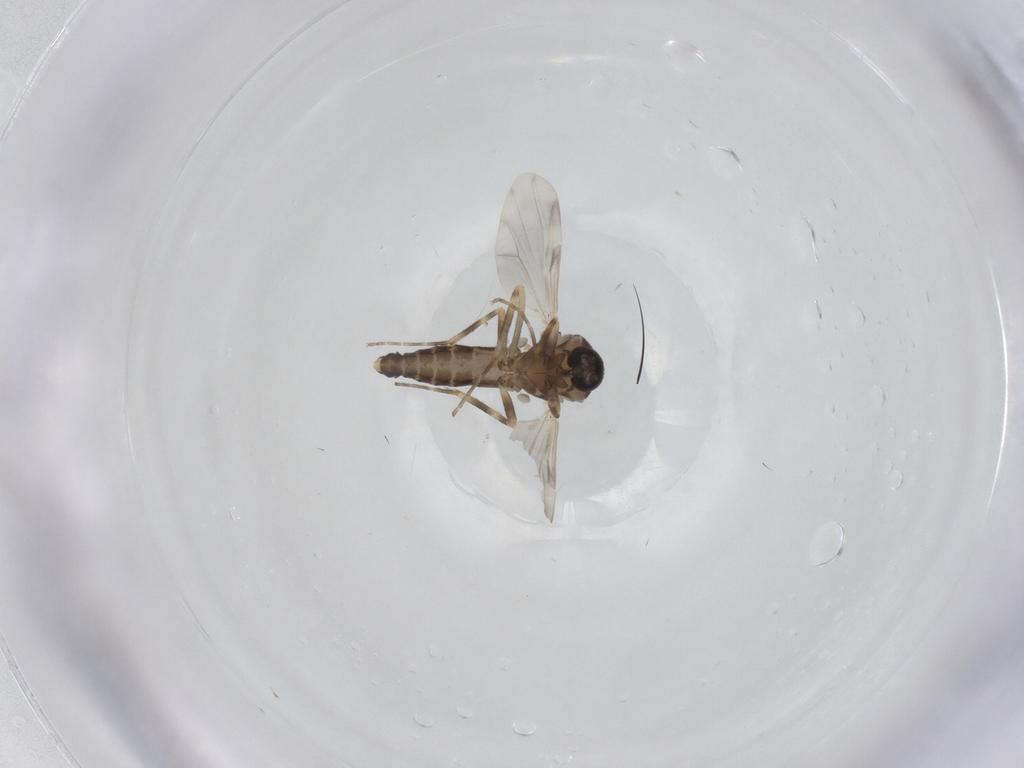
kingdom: Animalia
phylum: Arthropoda
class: Insecta
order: Diptera
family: Ceratopogonidae
